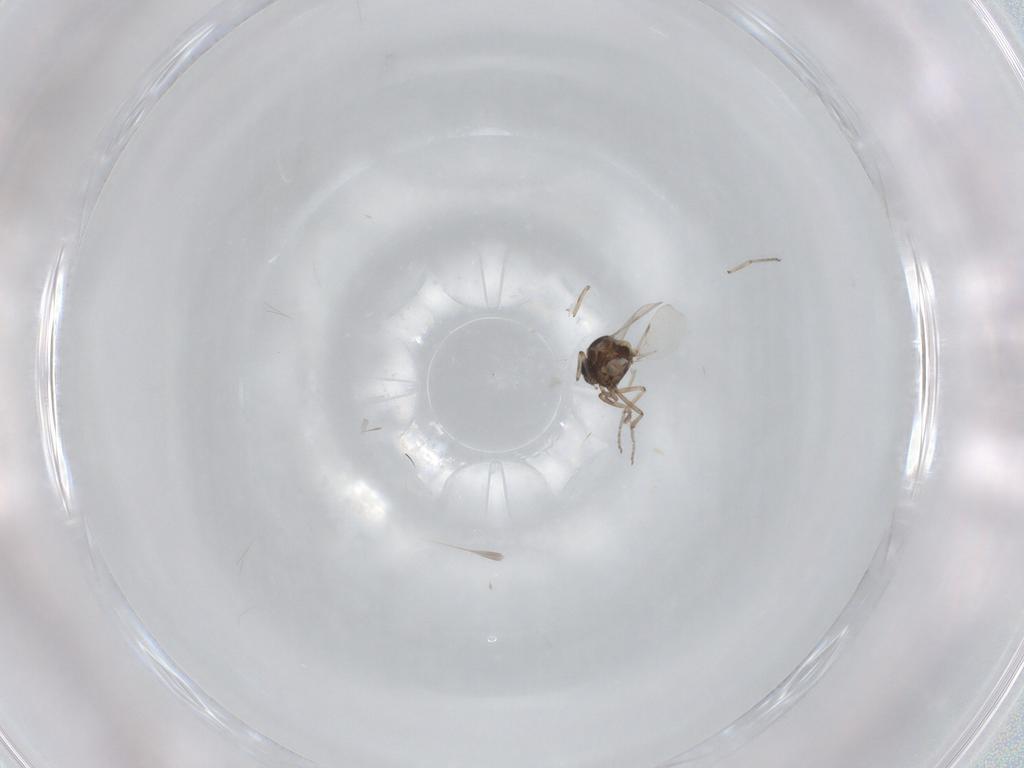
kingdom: Animalia
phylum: Arthropoda
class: Insecta
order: Diptera
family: Ceratopogonidae
